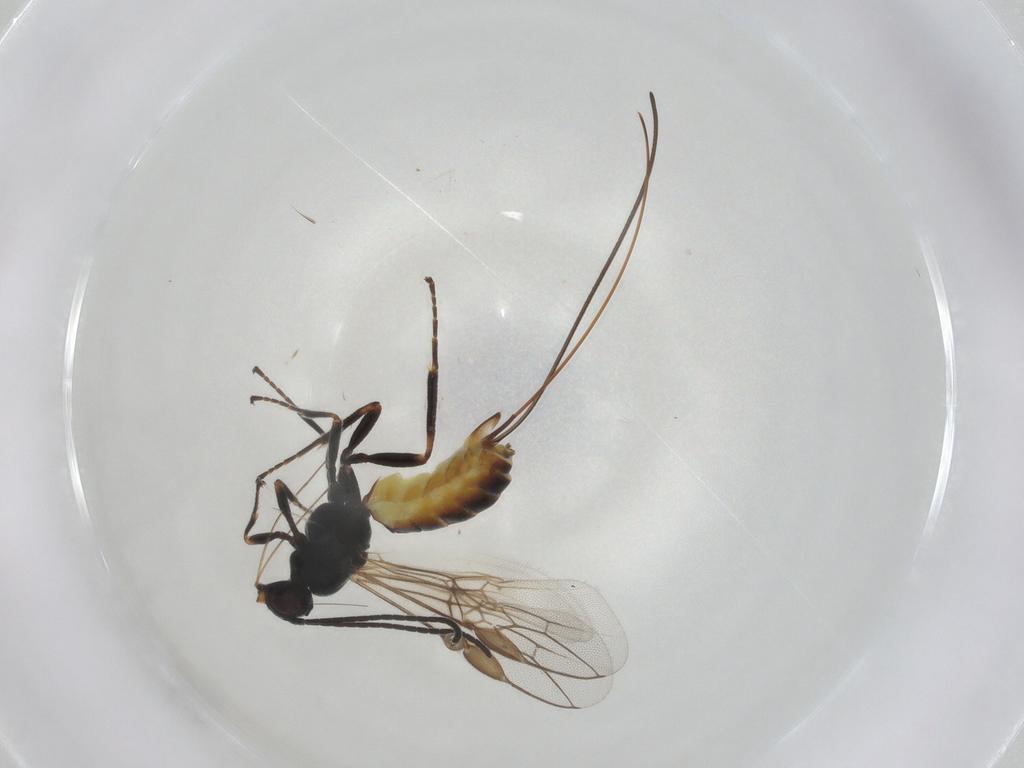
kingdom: Animalia
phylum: Arthropoda
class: Insecta
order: Hymenoptera
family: Braconidae
